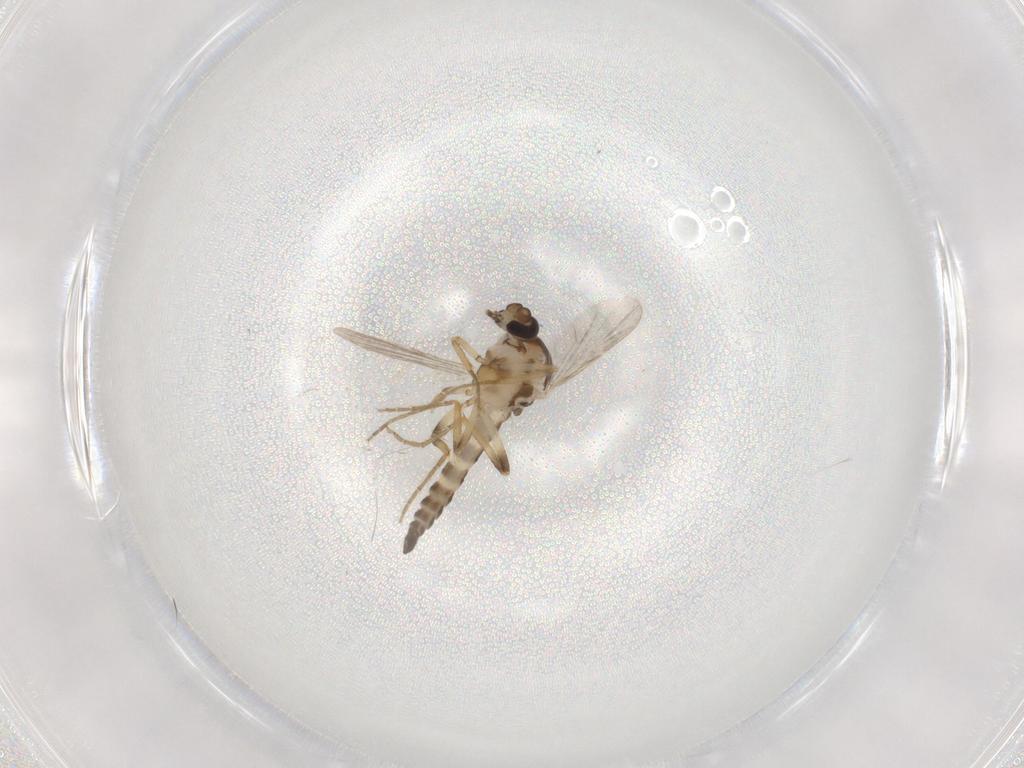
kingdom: Animalia
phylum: Arthropoda
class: Insecta
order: Diptera
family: Ceratopogonidae
